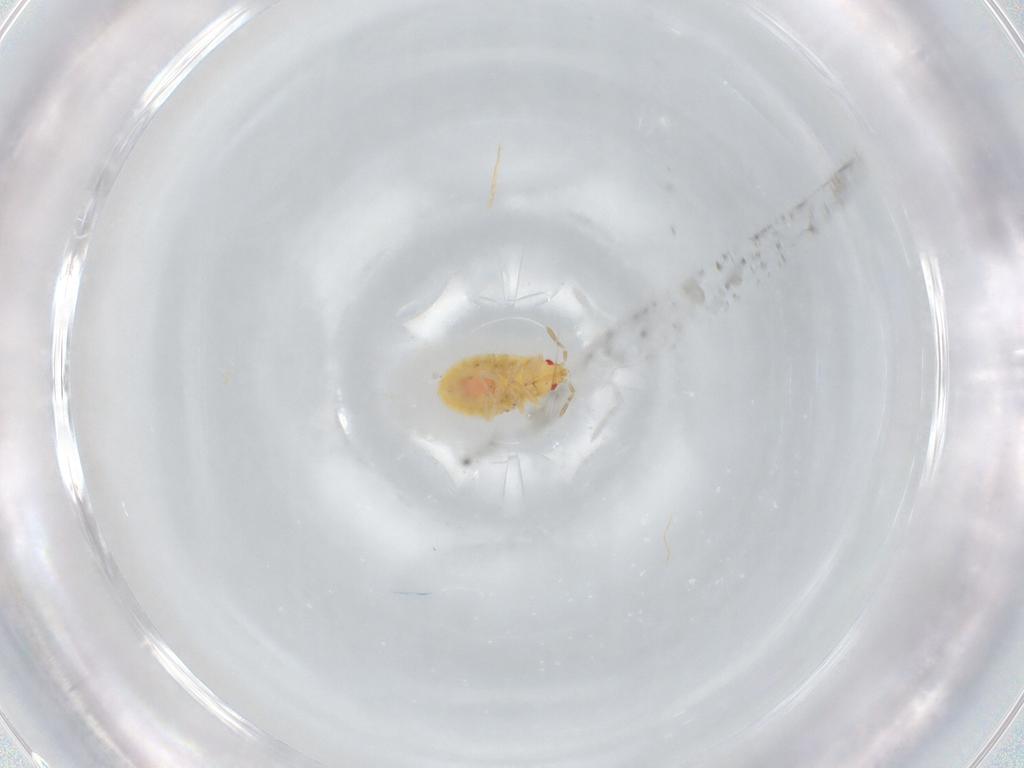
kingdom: Animalia
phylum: Arthropoda
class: Insecta
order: Hemiptera
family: Anthocoridae
